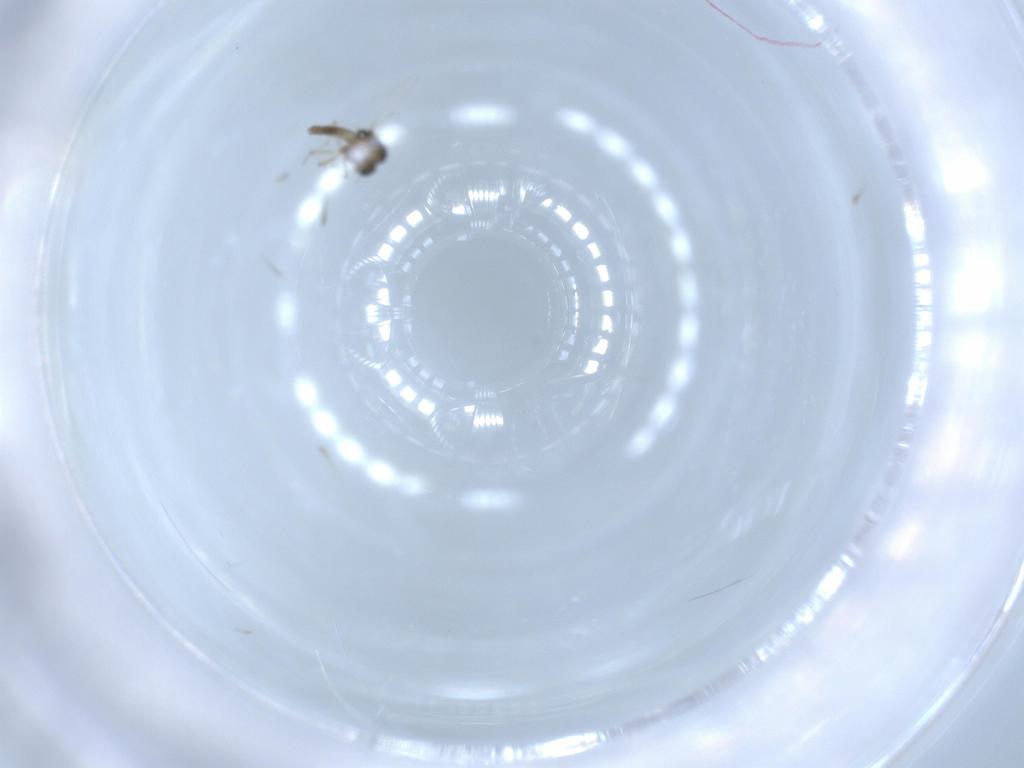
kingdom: Animalia
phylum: Arthropoda
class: Insecta
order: Diptera
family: Chironomidae
